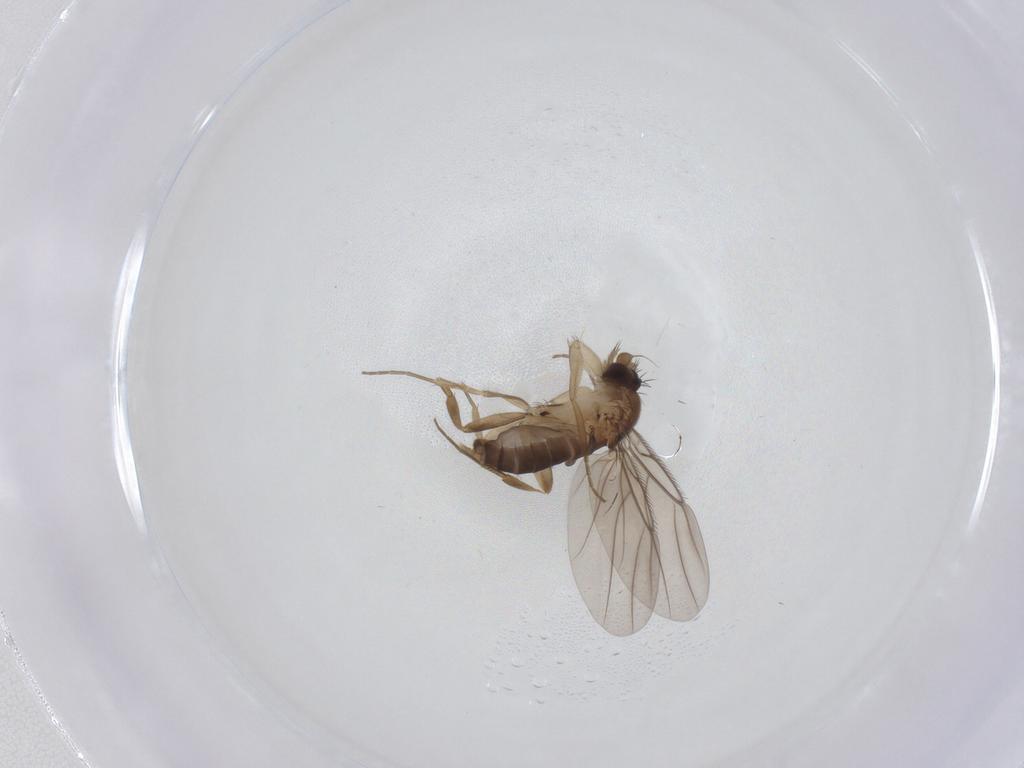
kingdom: Animalia
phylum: Arthropoda
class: Insecta
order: Diptera
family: Phoridae
